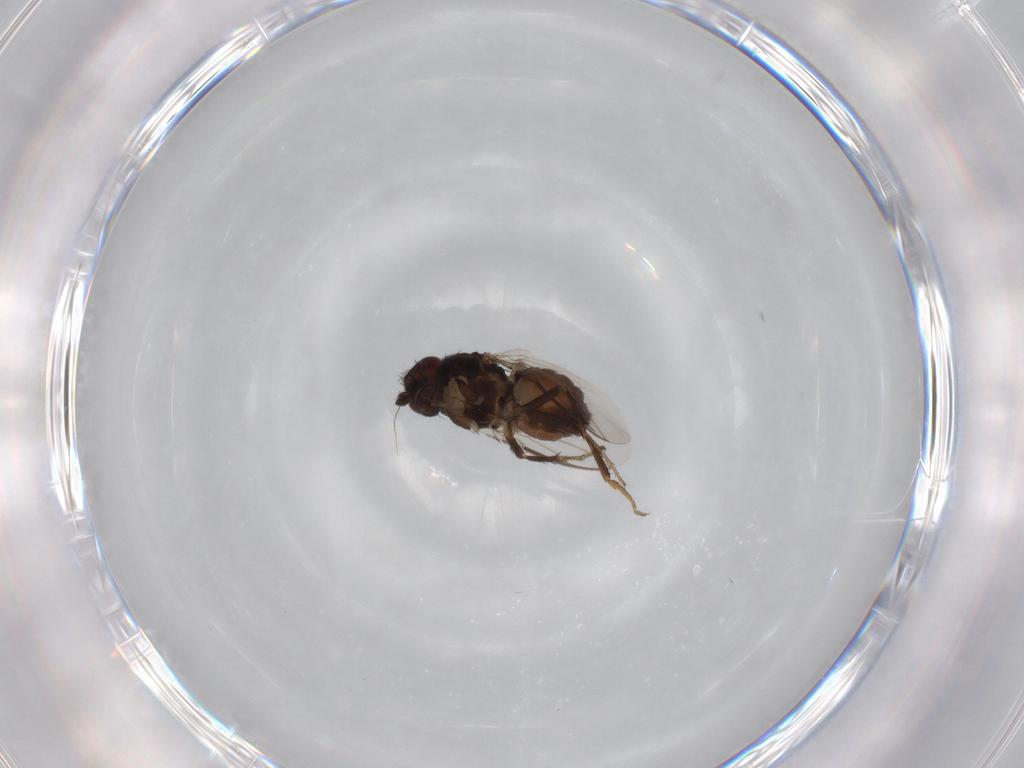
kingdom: Animalia
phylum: Arthropoda
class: Insecta
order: Diptera
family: Sphaeroceridae
